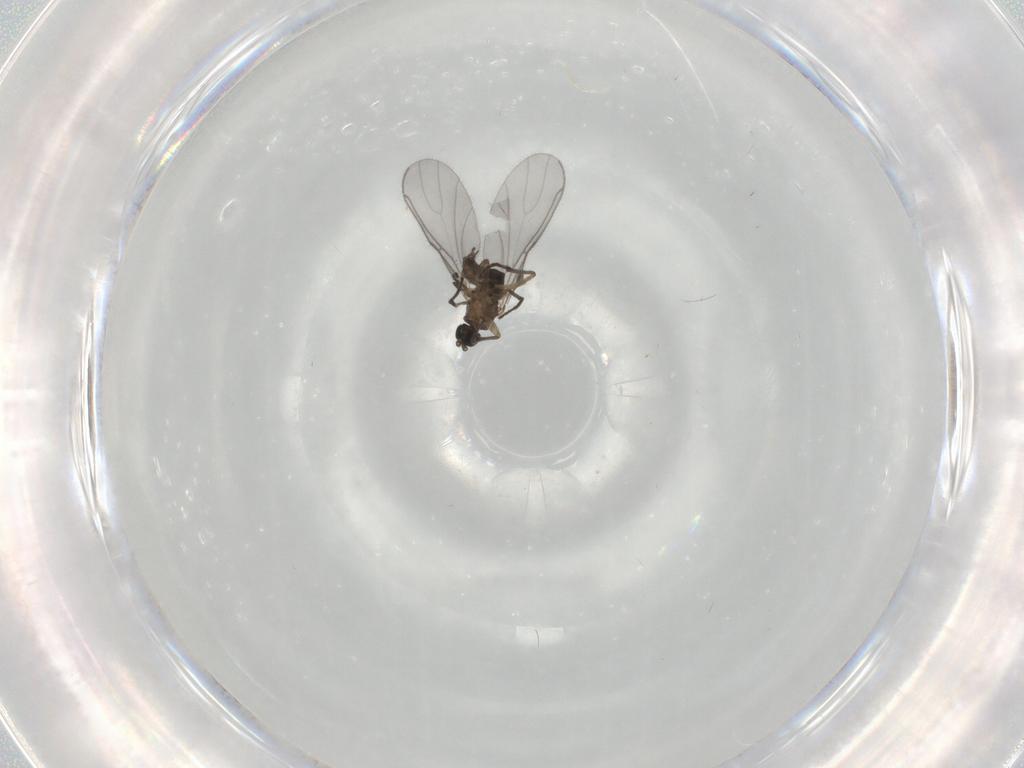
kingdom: Animalia
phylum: Arthropoda
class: Insecta
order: Diptera
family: Sciaridae
